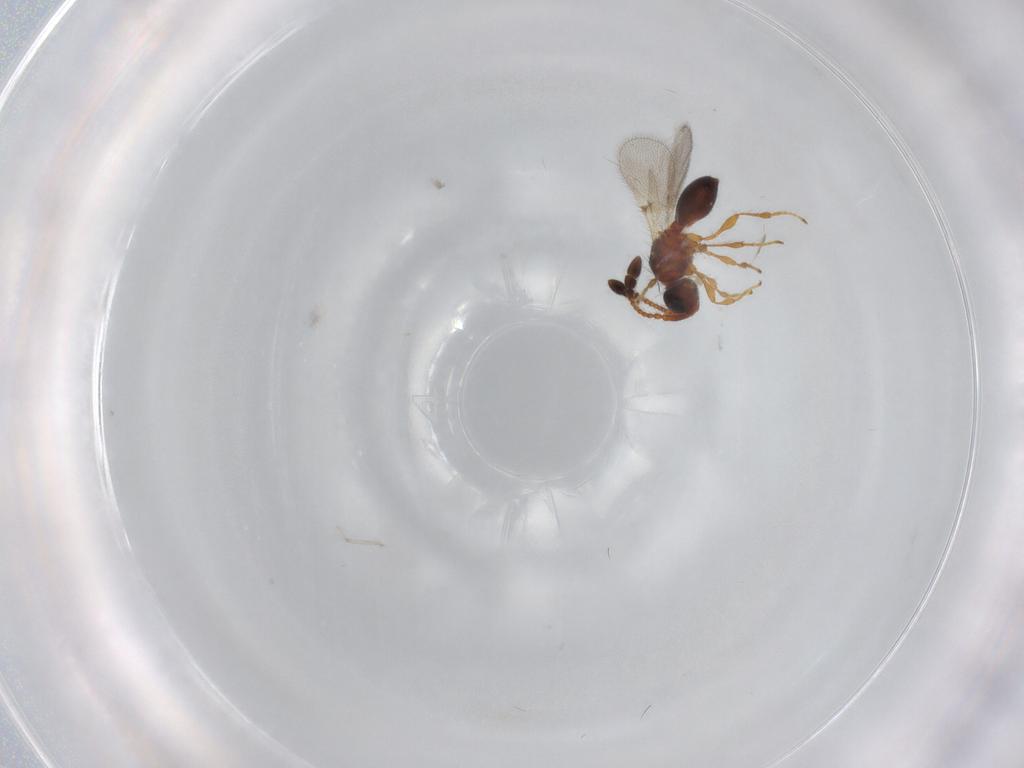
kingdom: Animalia
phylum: Arthropoda
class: Insecta
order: Hymenoptera
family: Diapriidae
